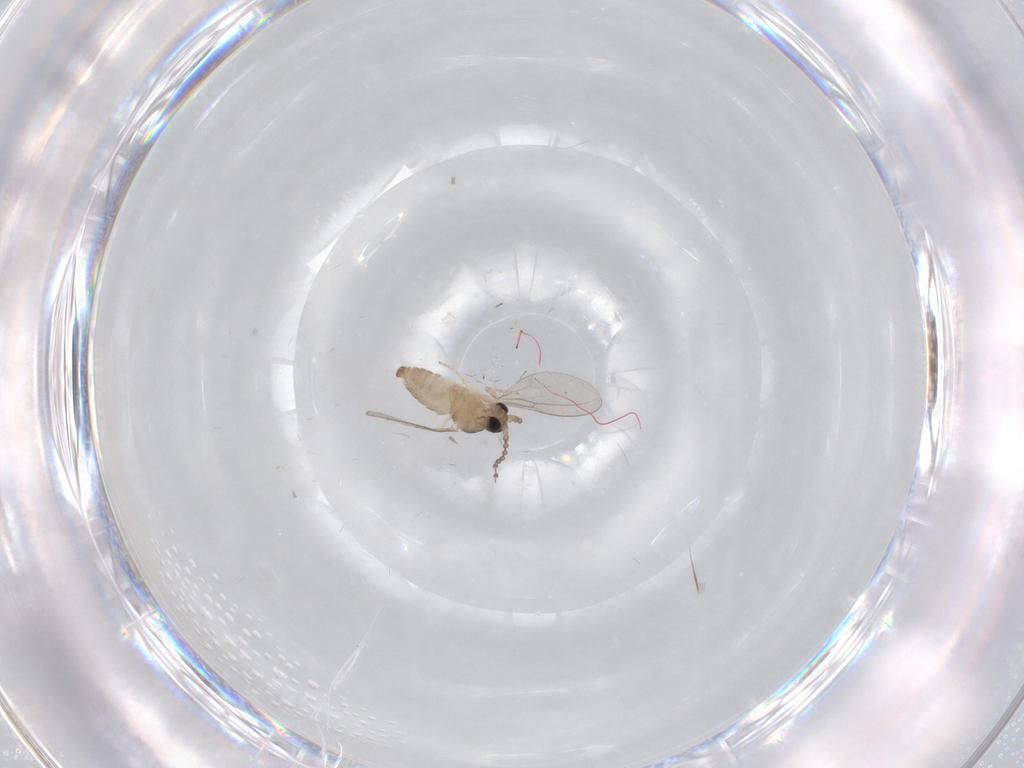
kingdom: Animalia
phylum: Arthropoda
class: Insecta
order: Diptera
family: Cecidomyiidae
